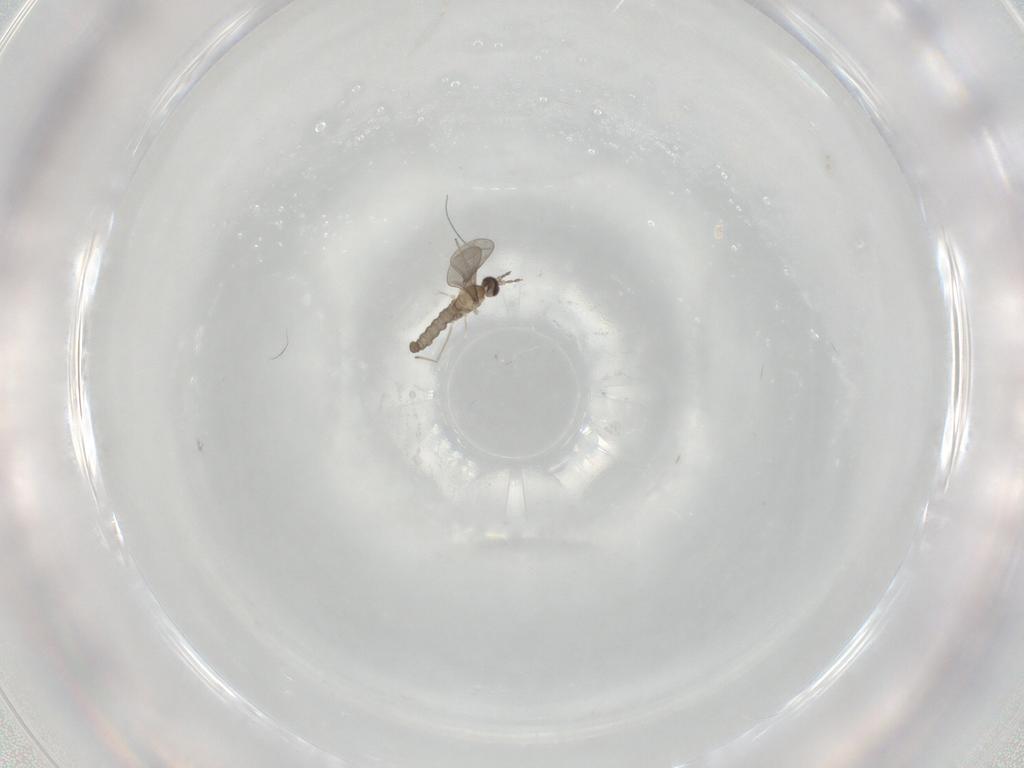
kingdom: Animalia
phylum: Arthropoda
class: Insecta
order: Diptera
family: Cecidomyiidae
